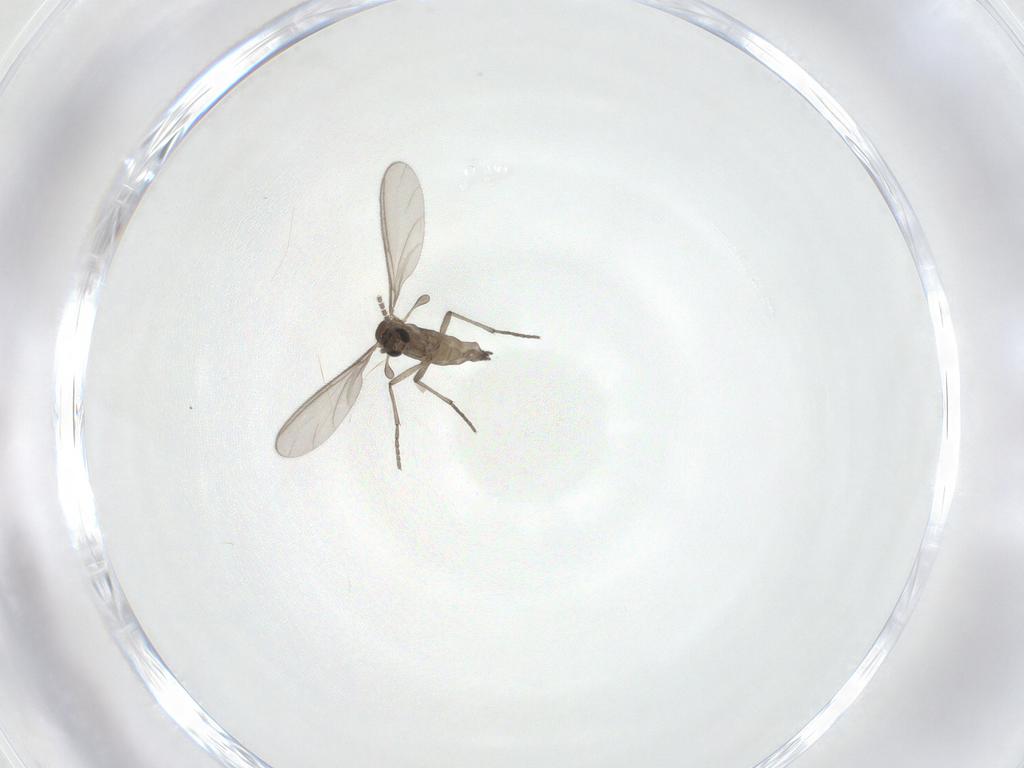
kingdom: Animalia
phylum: Arthropoda
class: Insecta
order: Diptera
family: Sciaridae
